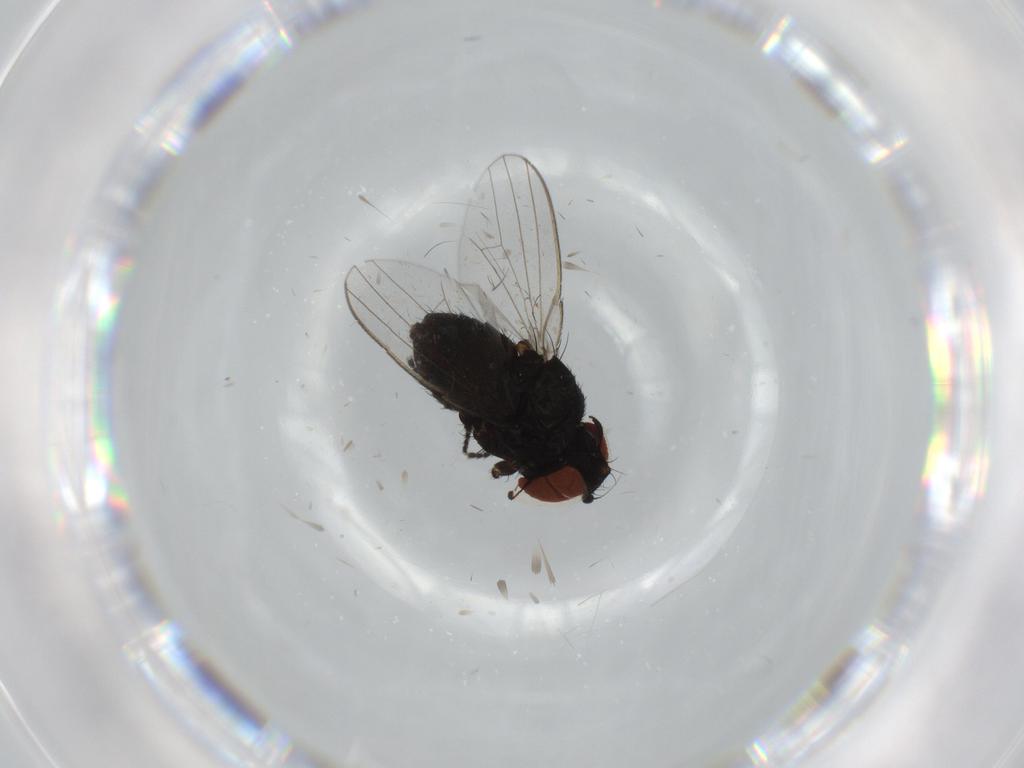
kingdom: Animalia
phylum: Arthropoda
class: Insecta
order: Diptera
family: Milichiidae
